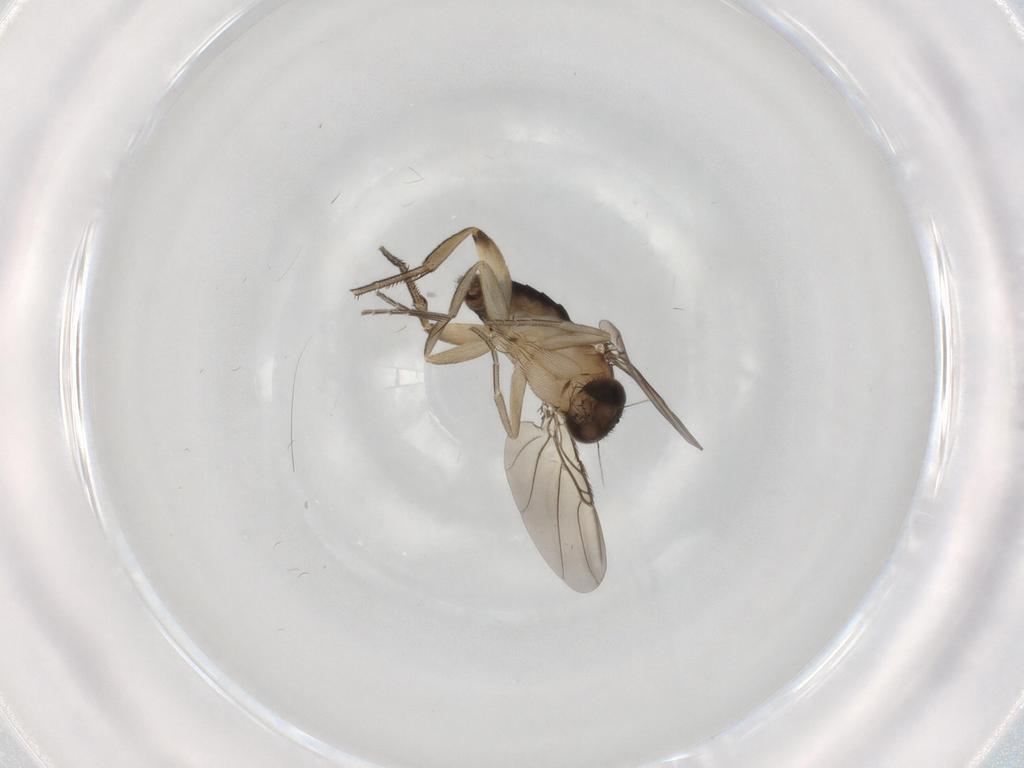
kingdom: Animalia
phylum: Arthropoda
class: Insecta
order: Diptera
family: Phoridae
